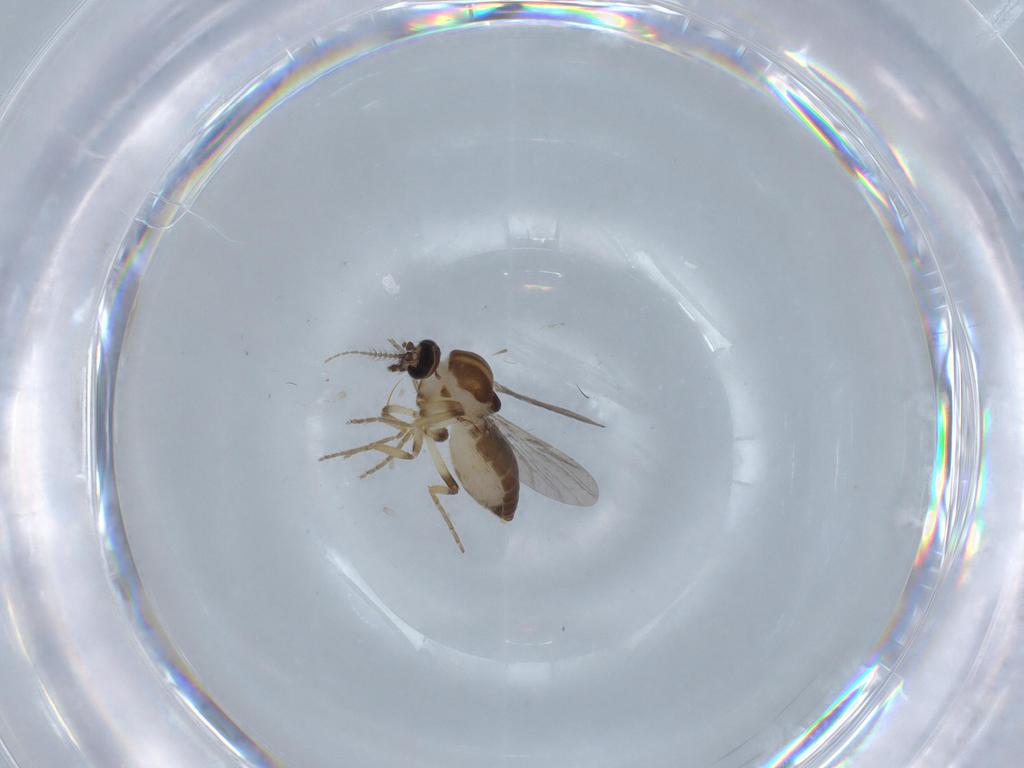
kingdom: Animalia
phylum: Arthropoda
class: Insecta
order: Diptera
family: Ceratopogonidae
